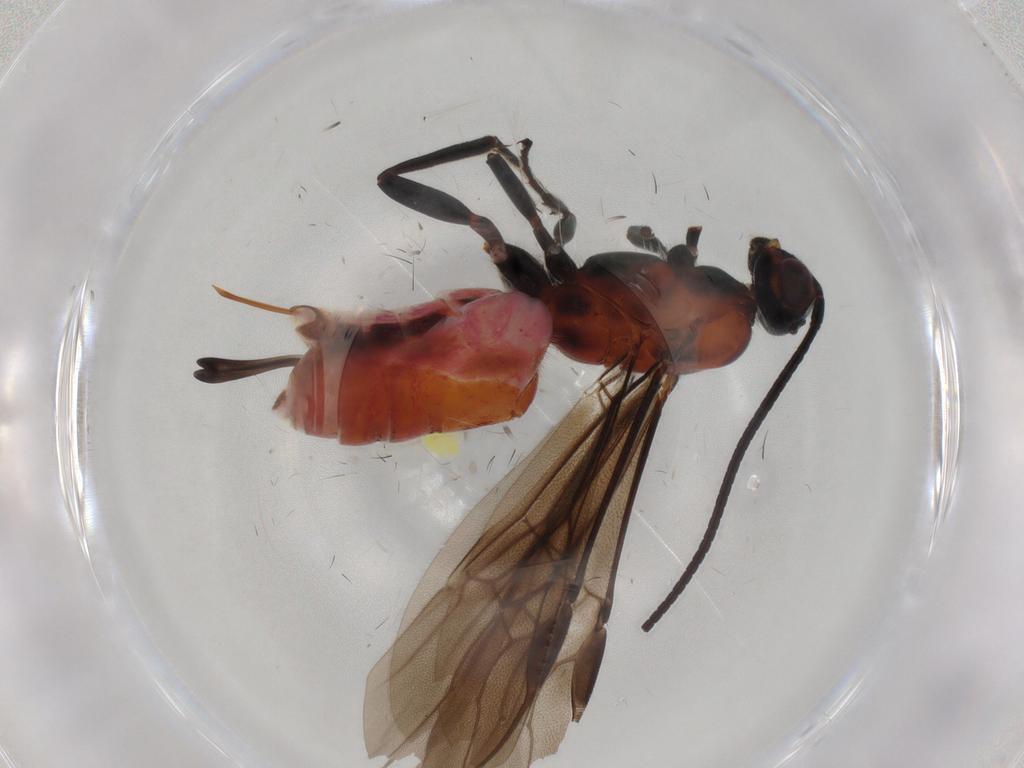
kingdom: Animalia
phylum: Arthropoda
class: Insecta
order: Hymenoptera
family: Braconidae
